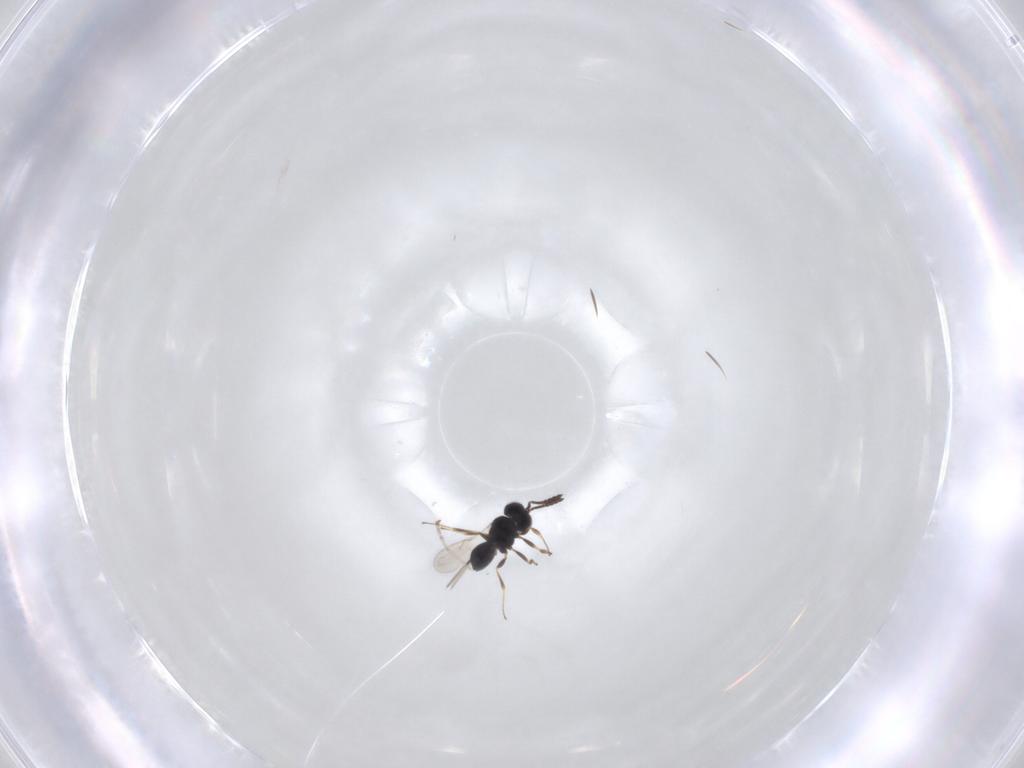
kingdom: Animalia
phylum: Arthropoda
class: Insecta
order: Hymenoptera
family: Scelionidae
